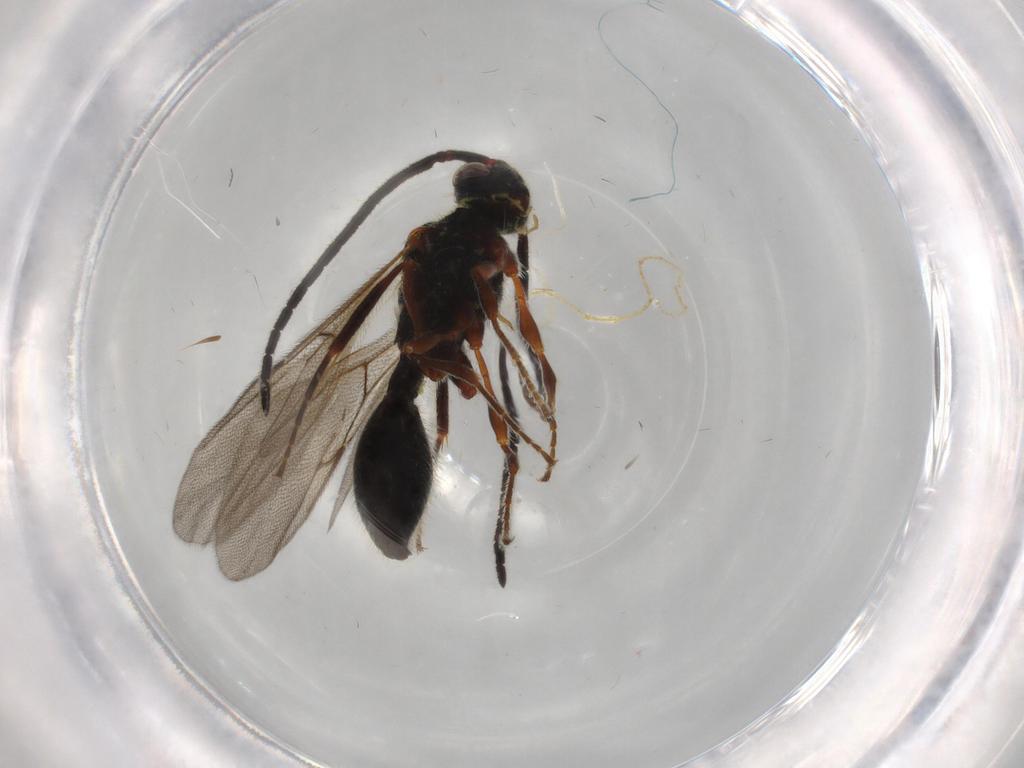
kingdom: Animalia
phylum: Arthropoda
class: Insecta
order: Hymenoptera
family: Diapriidae
